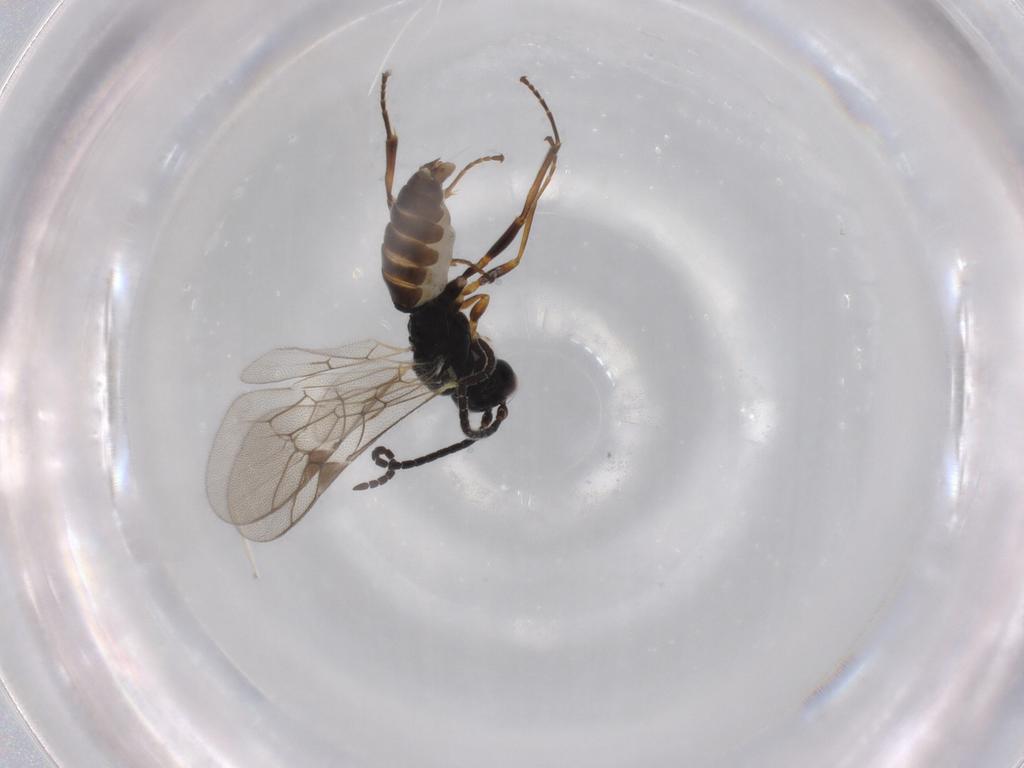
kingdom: Animalia
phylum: Arthropoda
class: Insecta
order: Hymenoptera
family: Ichneumonidae
